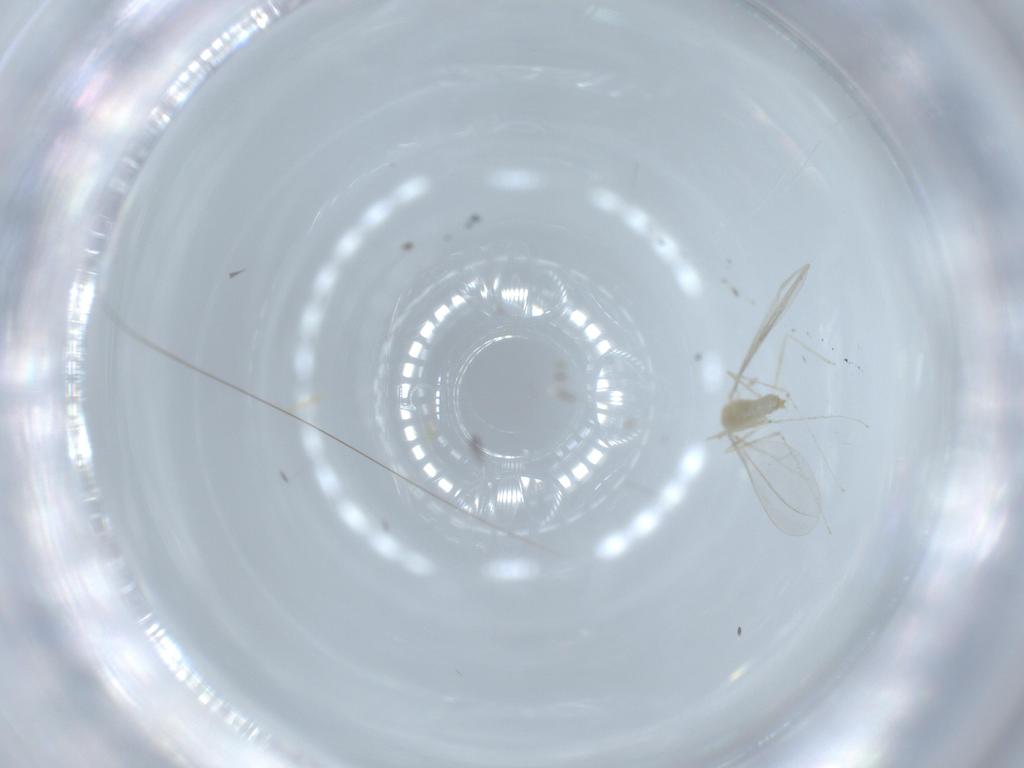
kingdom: Animalia
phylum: Arthropoda
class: Insecta
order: Diptera
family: Cecidomyiidae
